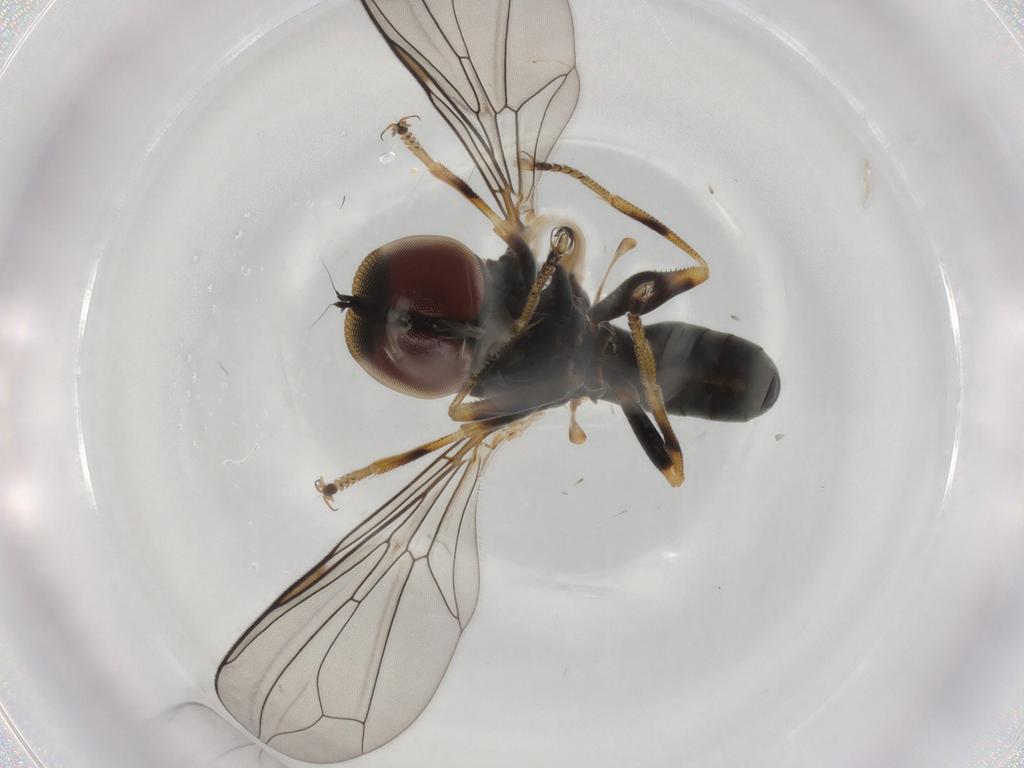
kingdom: Animalia
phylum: Arthropoda
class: Insecta
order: Diptera
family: Pipunculidae
